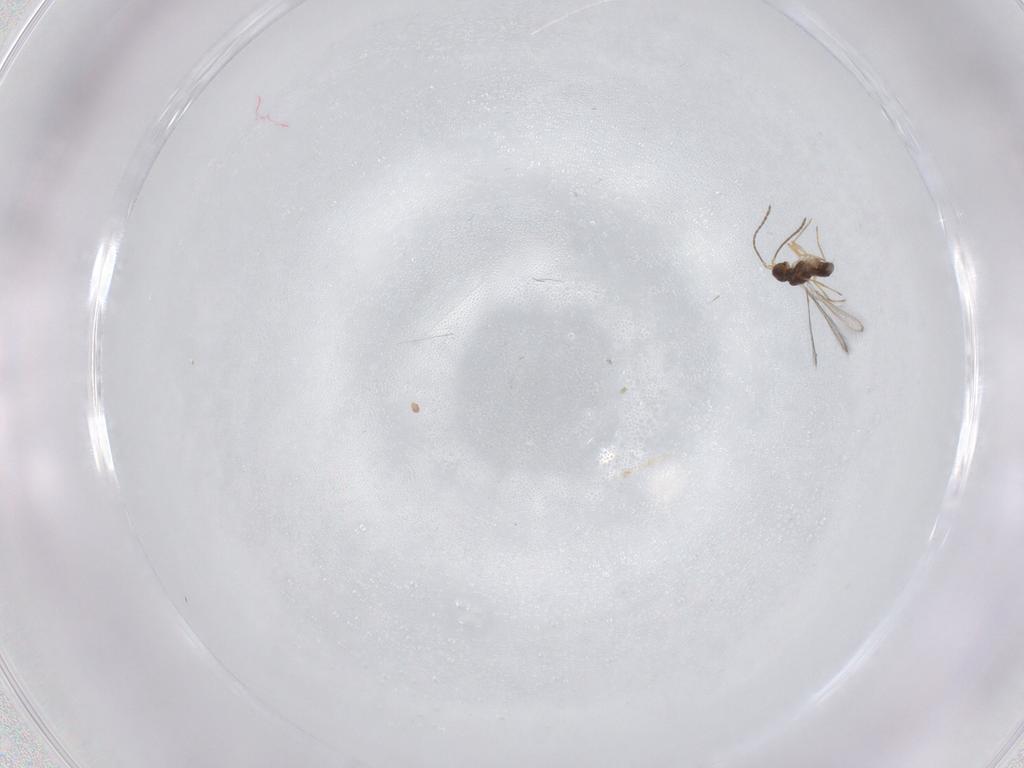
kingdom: Animalia
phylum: Arthropoda
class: Insecta
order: Hymenoptera
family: Mymaridae
